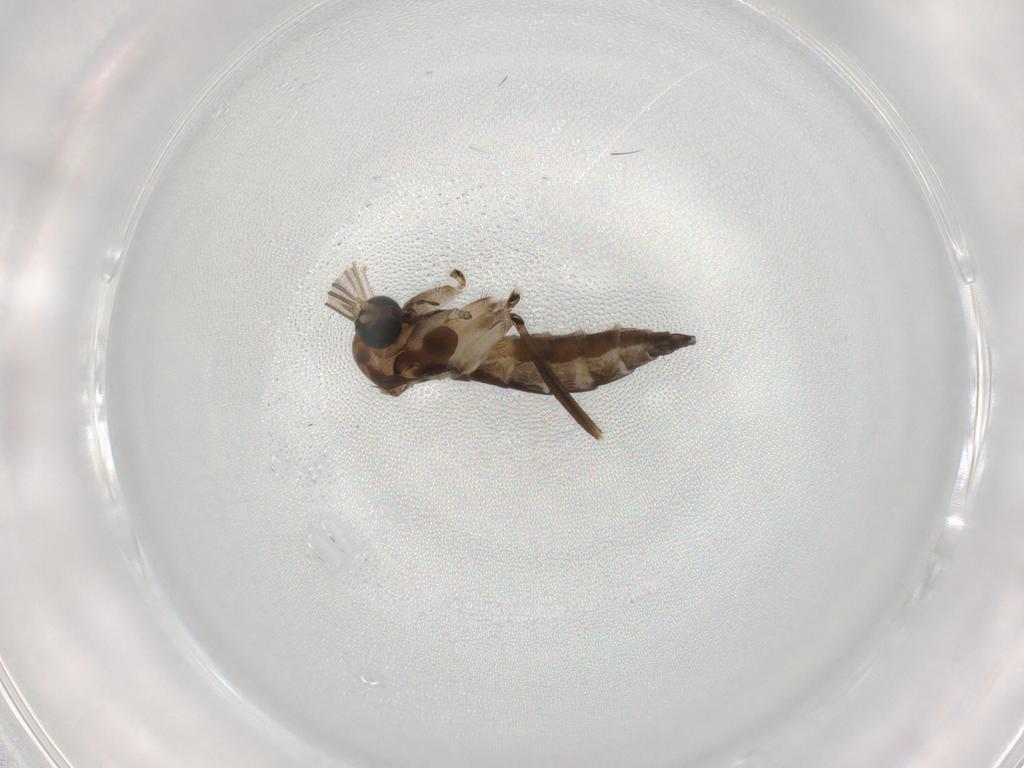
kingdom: Animalia
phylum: Arthropoda
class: Insecta
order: Diptera
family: Sciaridae
